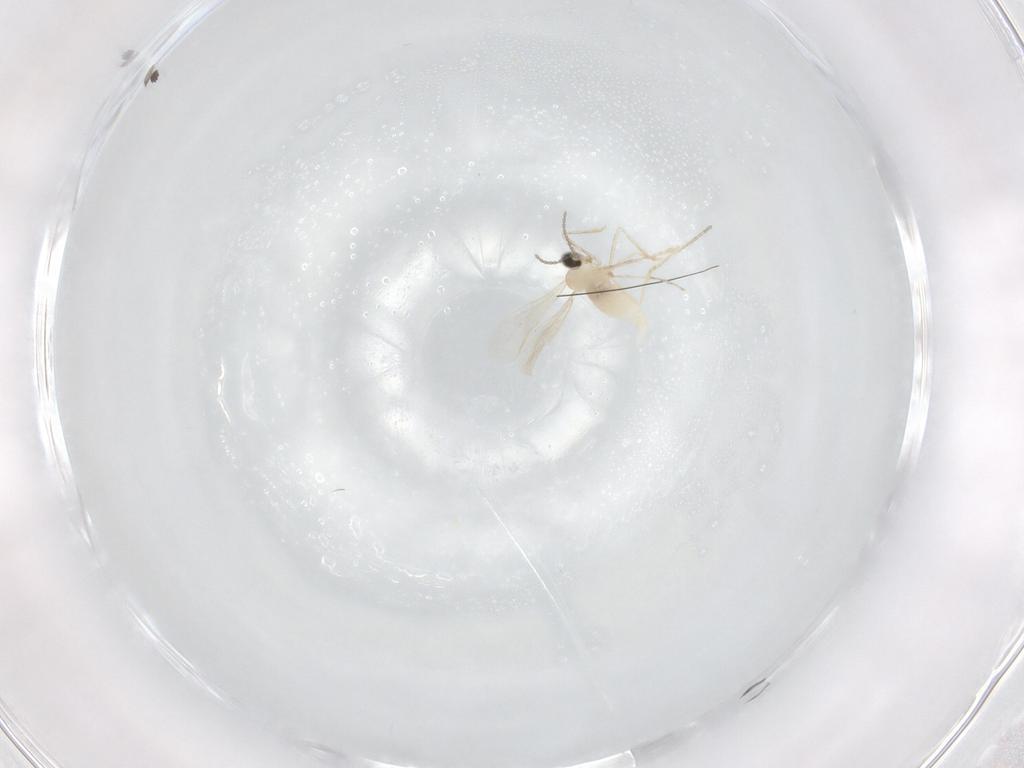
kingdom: Animalia
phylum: Arthropoda
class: Insecta
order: Diptera
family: Cecidomyiidae
